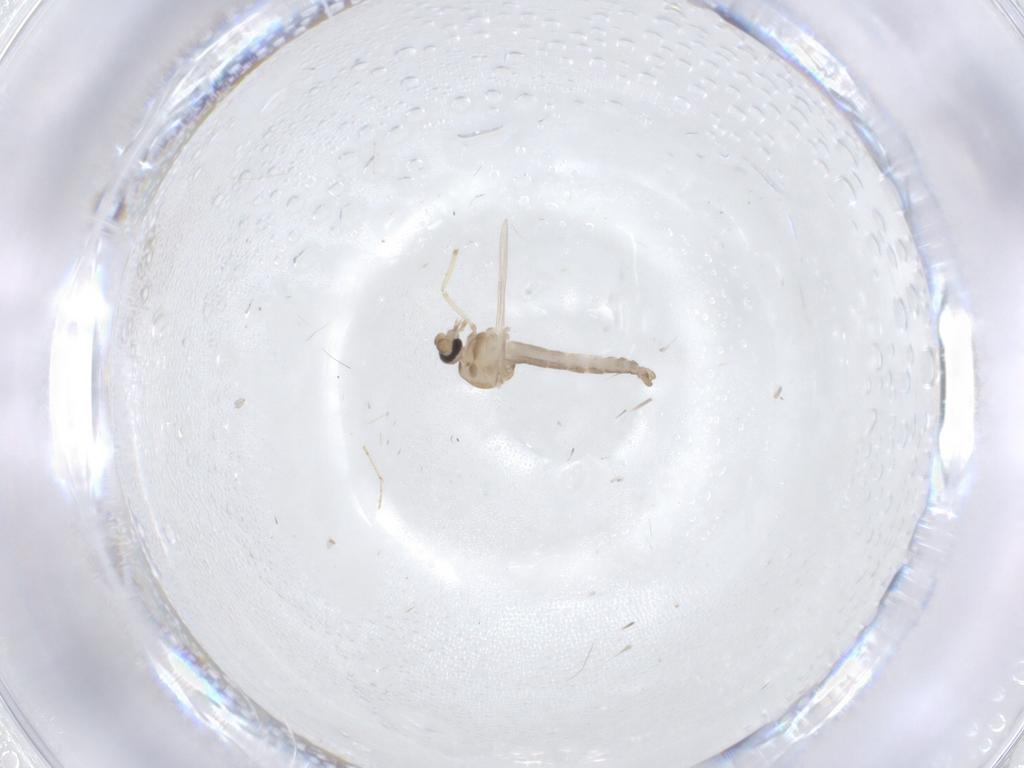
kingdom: Animalia
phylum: Arthropoda
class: Insecta
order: Diptera
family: Ceratopogonidae
